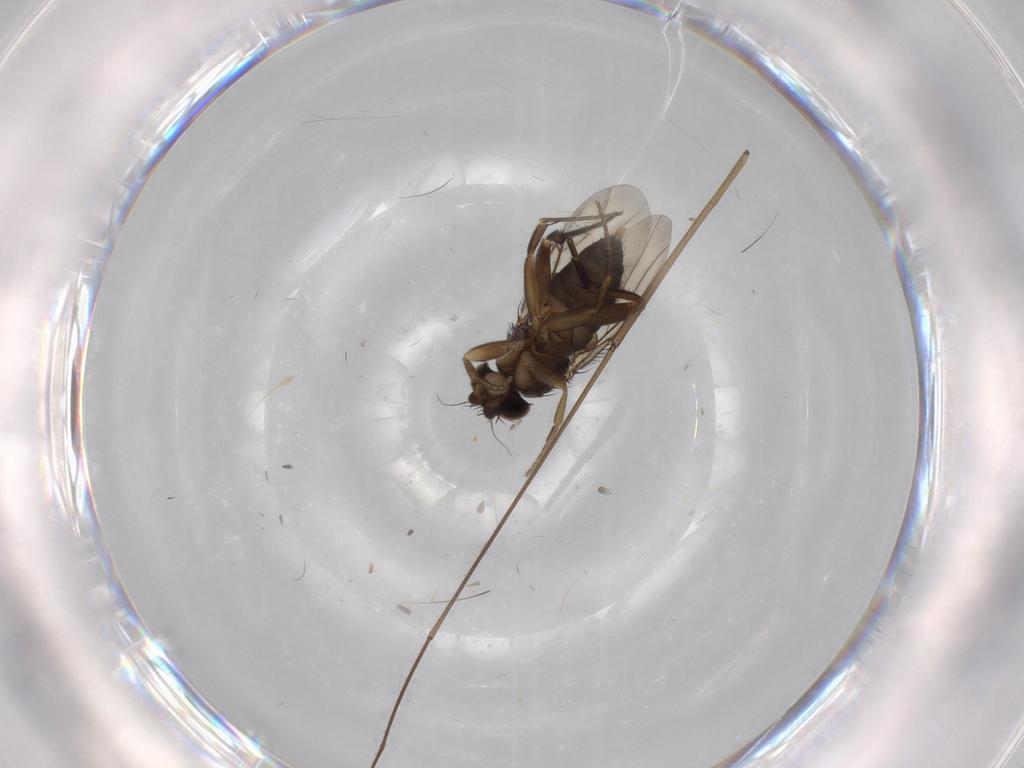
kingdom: Animalia
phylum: Arthropoda
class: Insecta
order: Diptera
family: Phoridae
